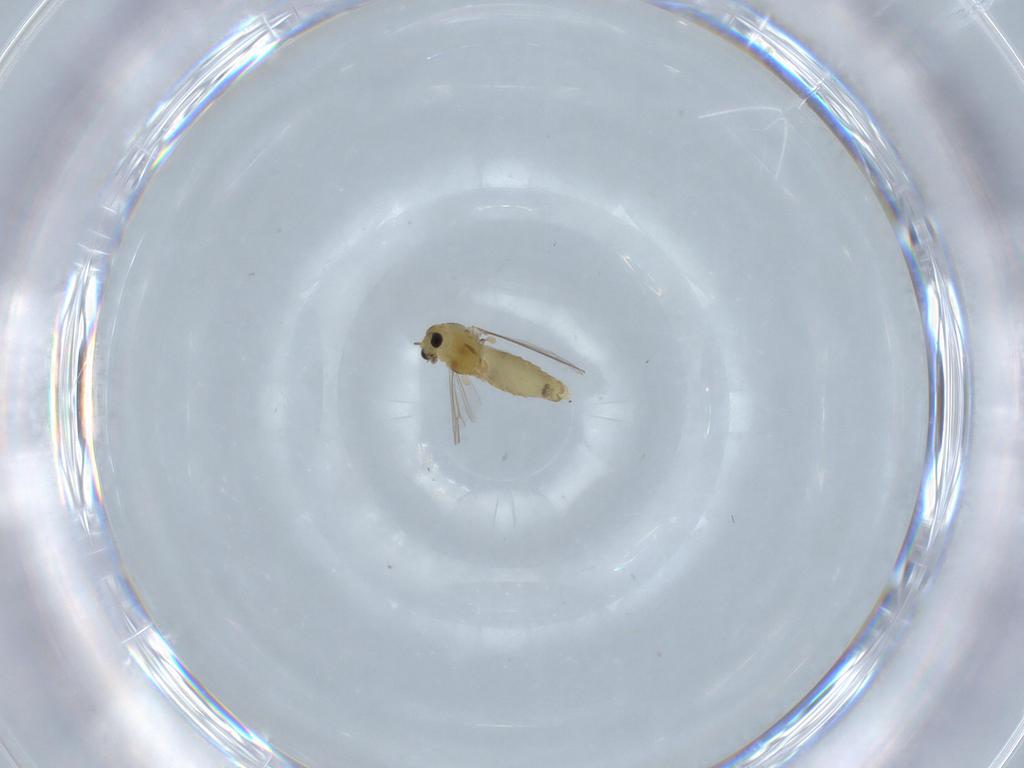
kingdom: Animalia
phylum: Arthropoda
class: Insecta
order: Diptera
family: Chironomidae
